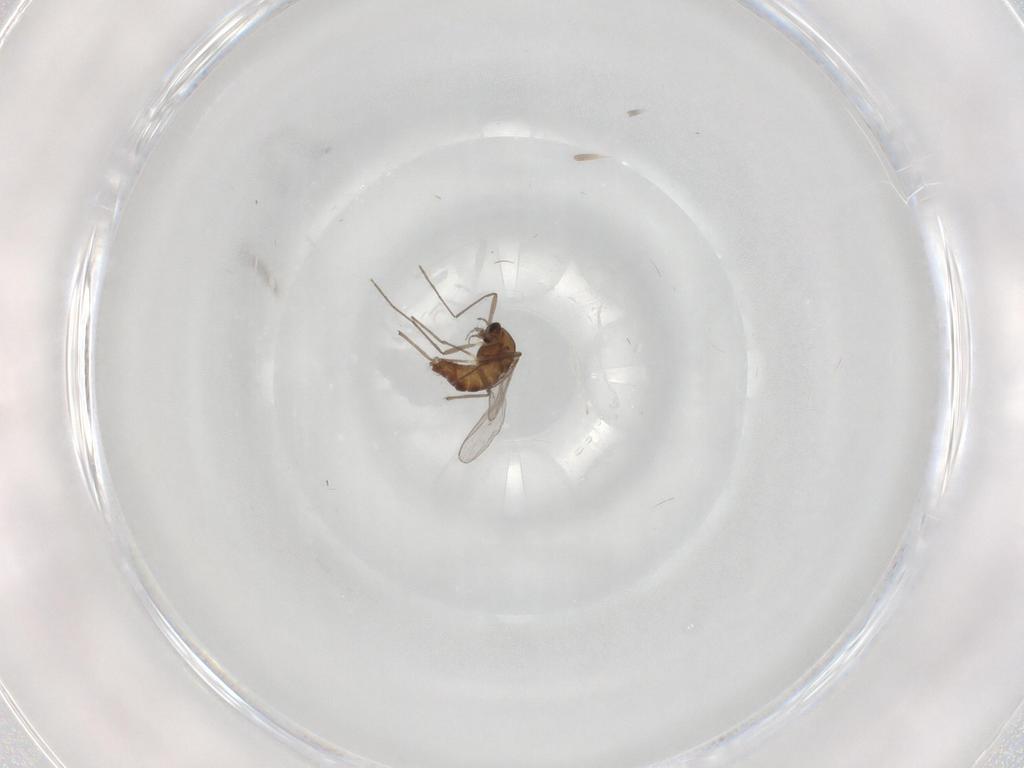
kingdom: Animalia
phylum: Arthropoda
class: Insecta
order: Diptera
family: Chironomidae
